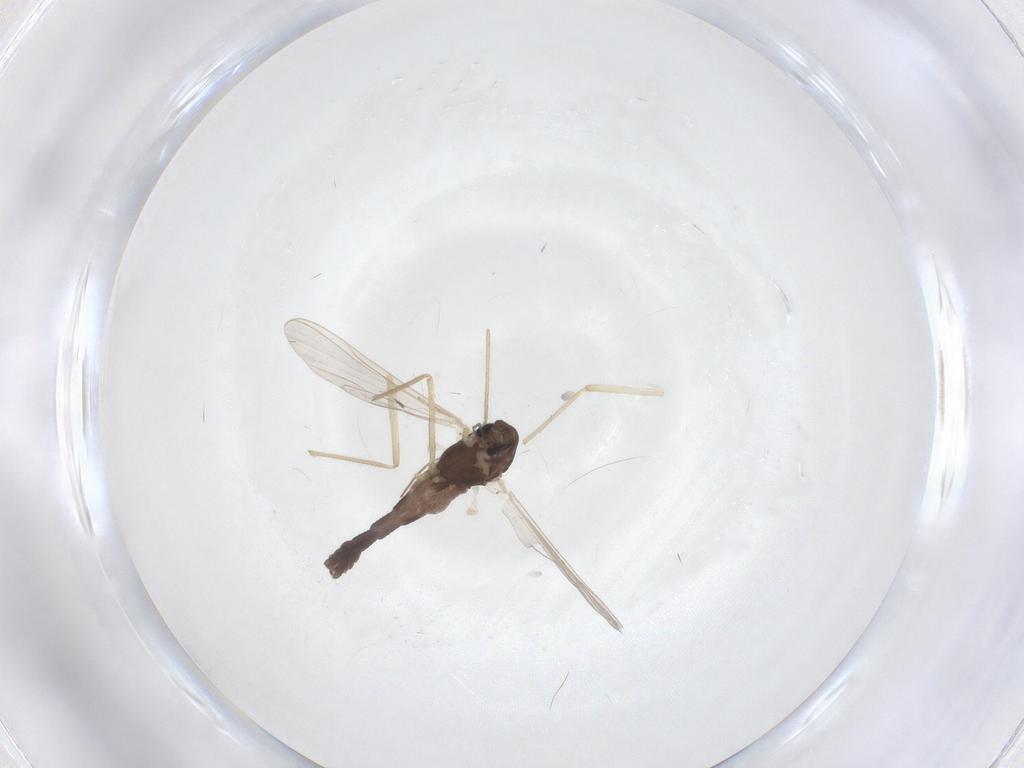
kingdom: Animalia
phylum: Arthropoda
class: Insecta
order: Diptera
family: Chironomidae
